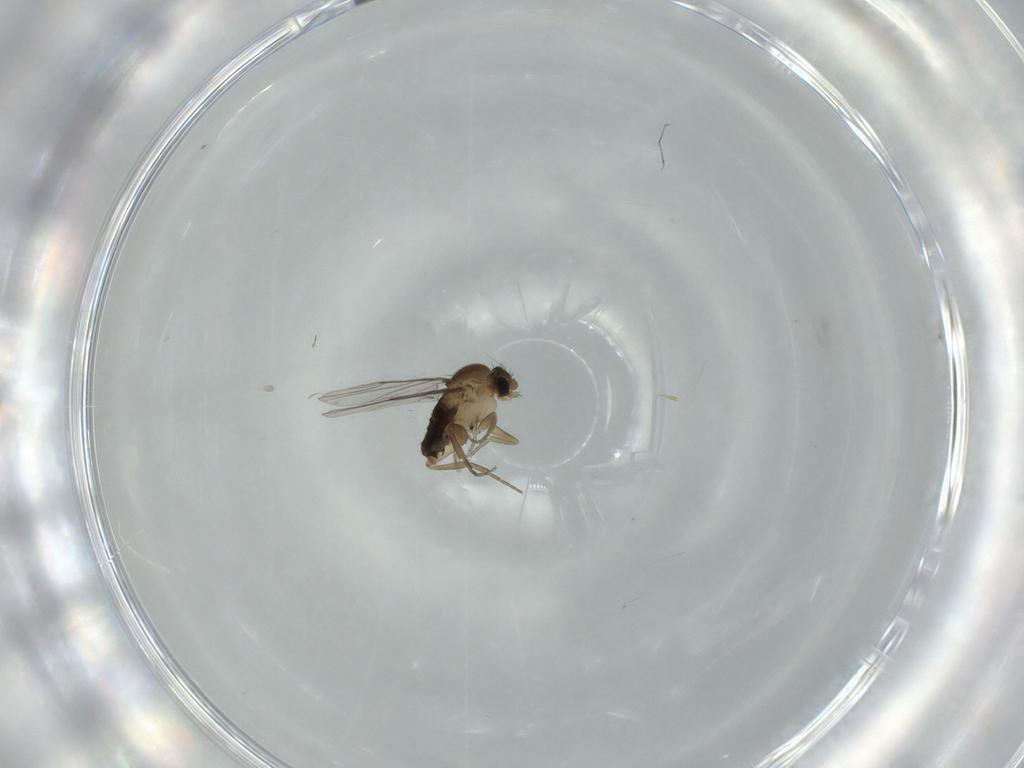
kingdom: Animalia
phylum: Arthropoda
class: Insecta
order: Diptera
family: Phoridae
